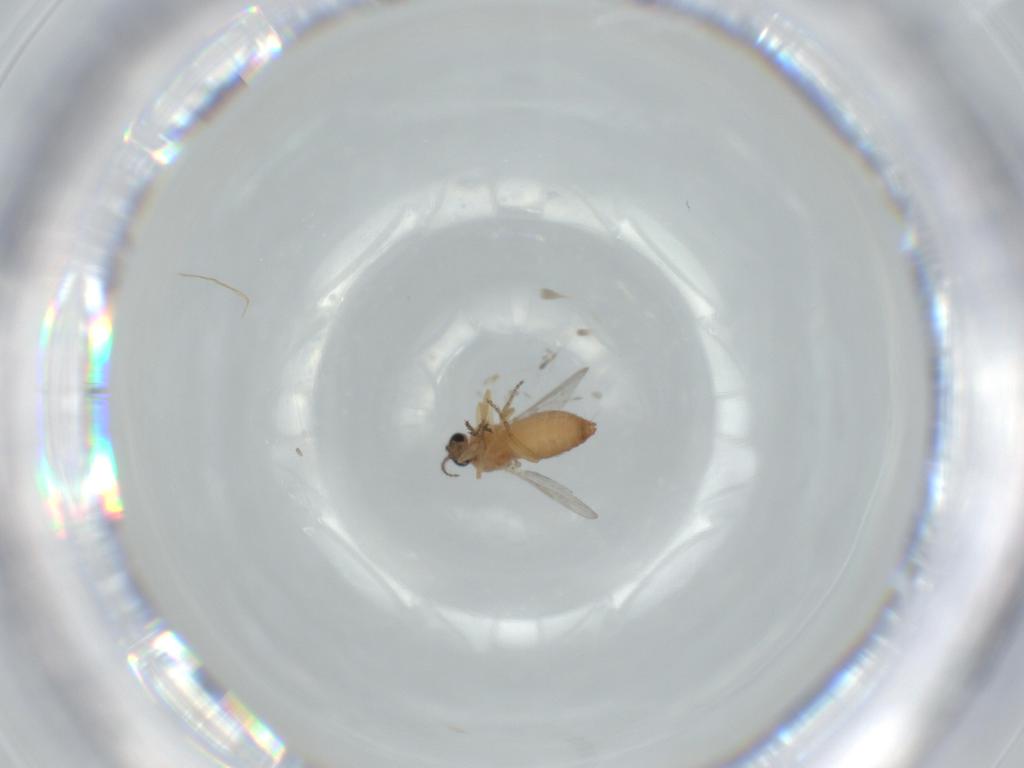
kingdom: Animalia
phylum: Arthropoda
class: Insecta
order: Diptera
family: Ceratopogonidae
